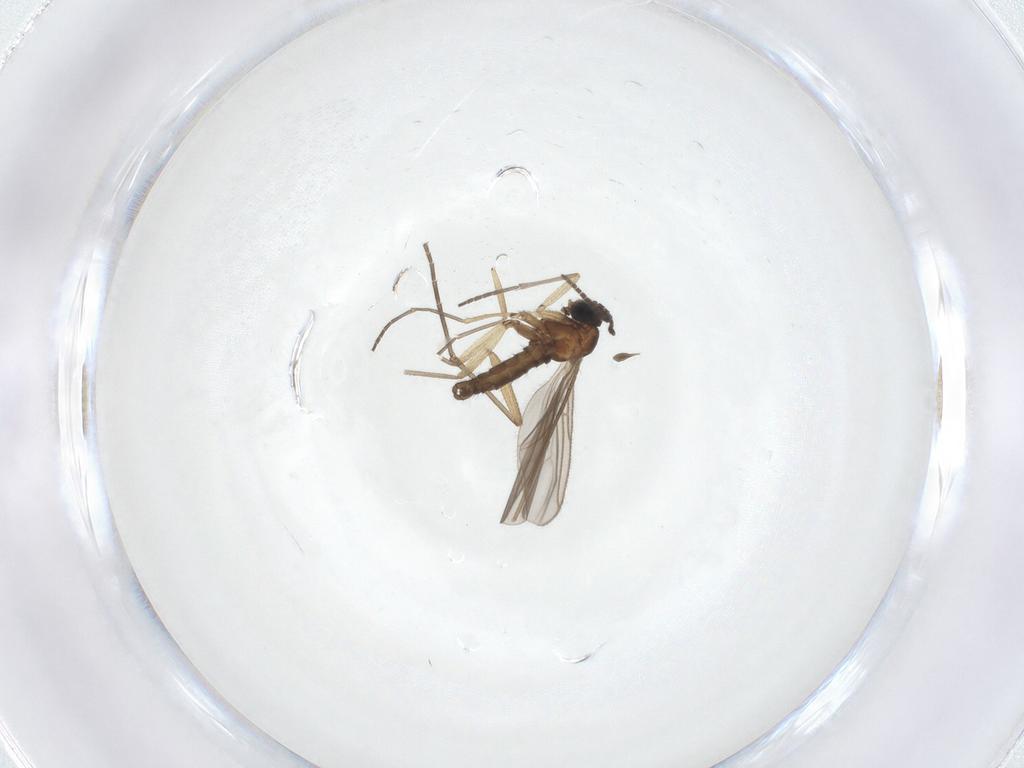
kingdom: Animalia
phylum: Arthropoda
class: Insecta
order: Diptera
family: Sciaridae
